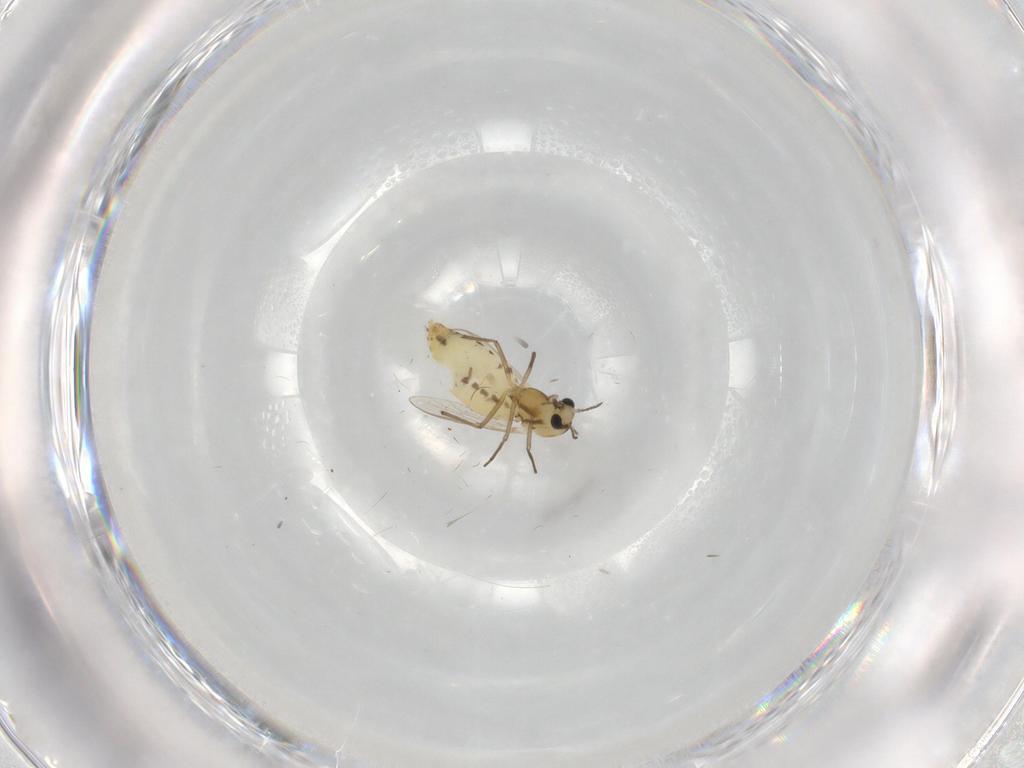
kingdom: Animalia
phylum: Arthropoda
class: Insecta
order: Diptera
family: Chironomidae
